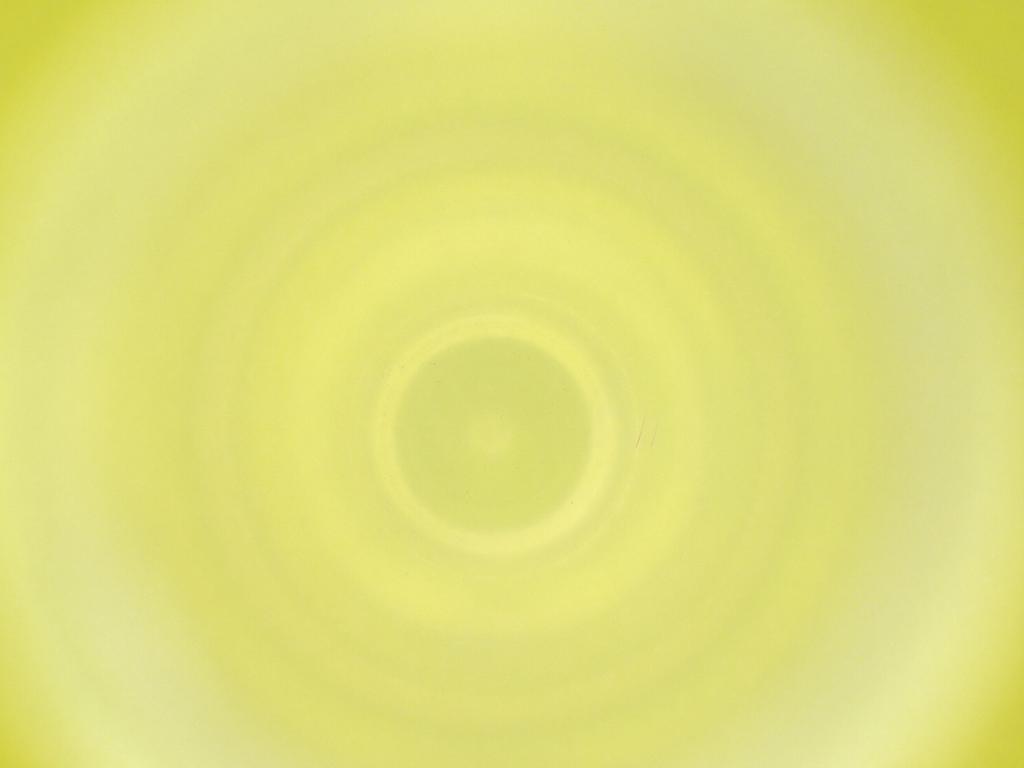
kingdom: Animalia
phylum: Arthropoda
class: Insecta
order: Diptera
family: Cecidomyiidae
